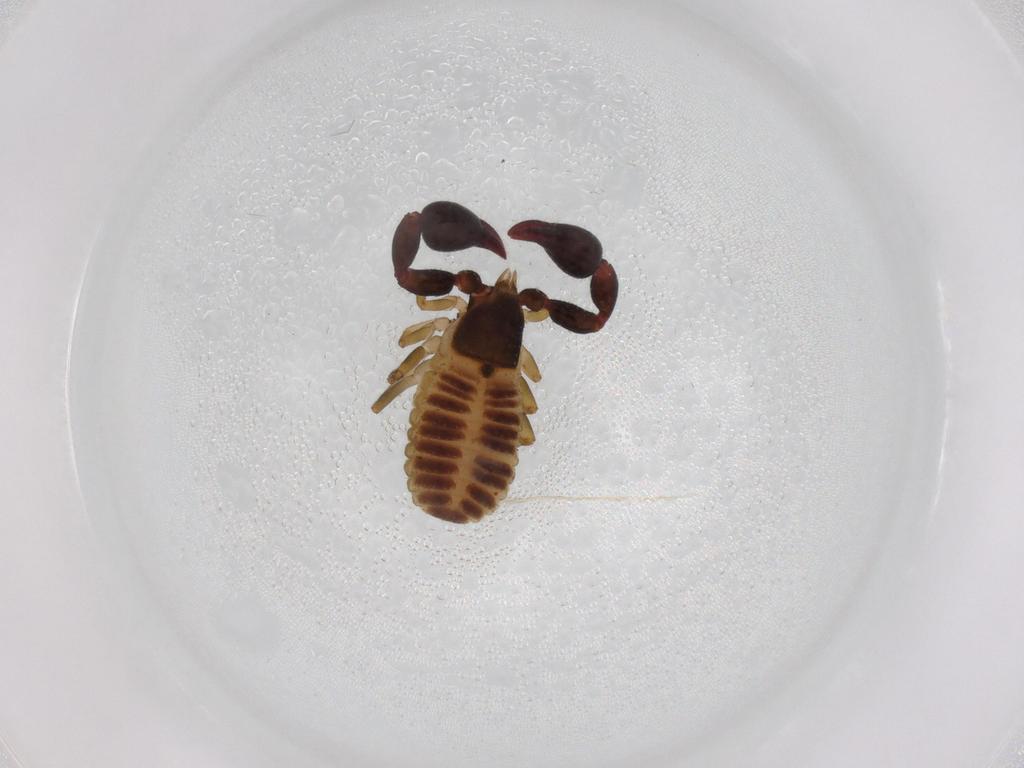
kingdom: Animalia
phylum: Arthropoda
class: Arachnida
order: Pseudoscorpiones
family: Chernetidae
